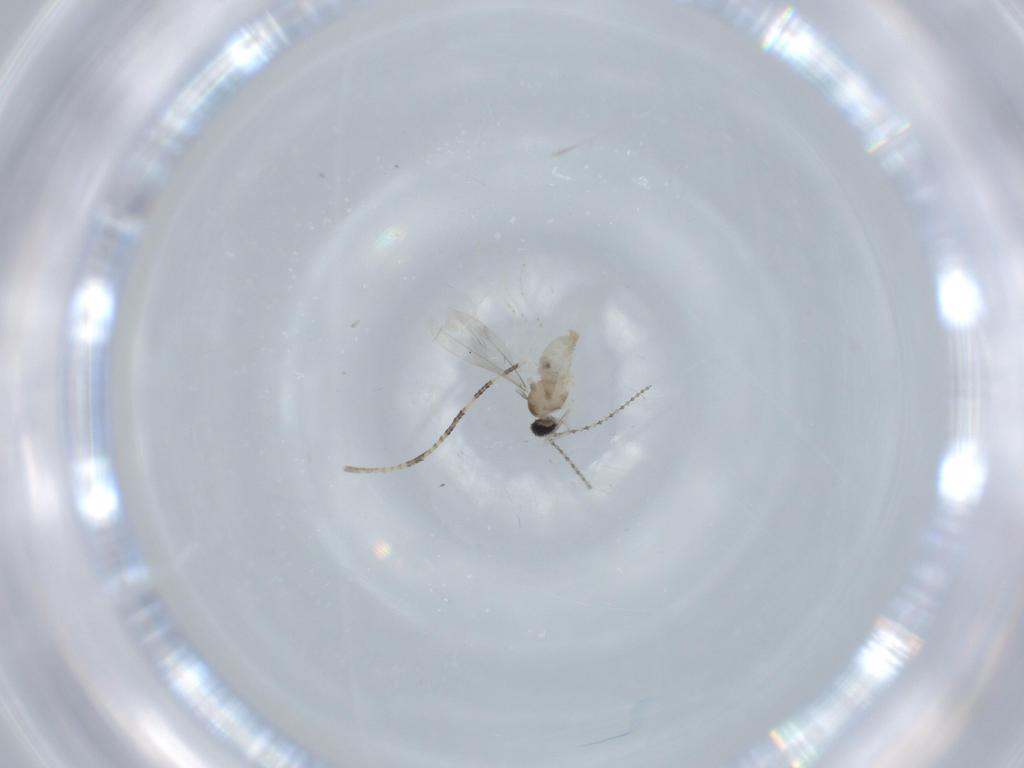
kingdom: Animalia
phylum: Arthropoda
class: Insecta
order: Diptera
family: Cecidomyiidae
